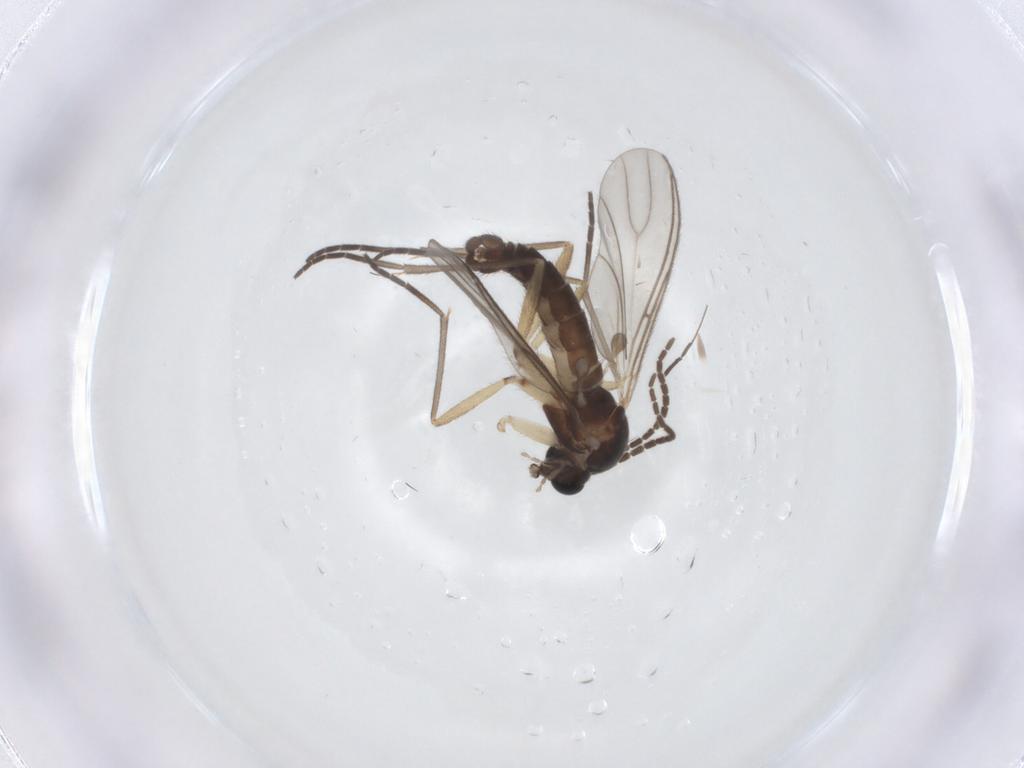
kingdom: Animalia
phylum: Arthropoda
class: Insecta
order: Diptera
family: Sciaridae
